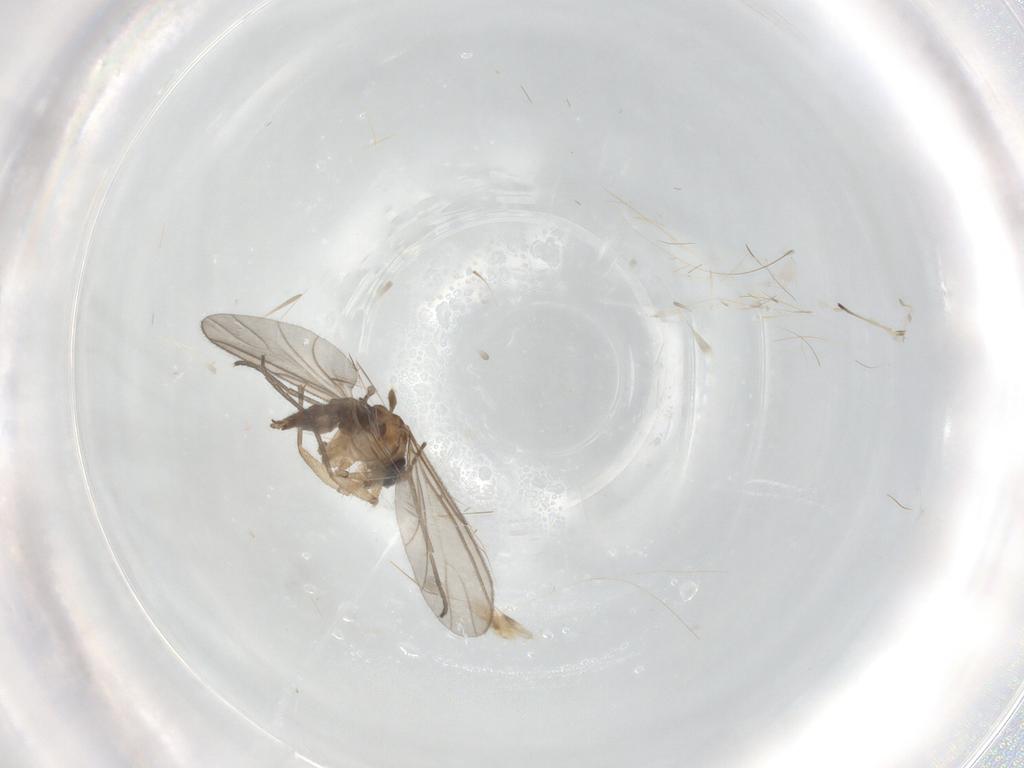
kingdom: Animalia
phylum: Arthropoda
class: Insecta
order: Diptera
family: Sciaridae
